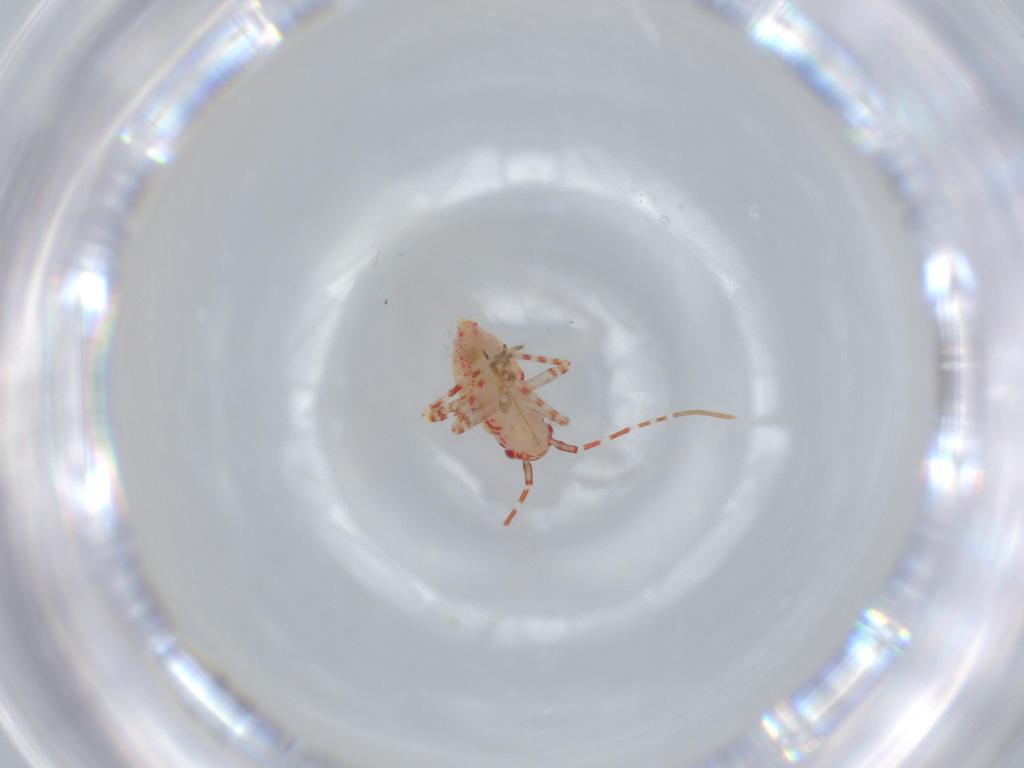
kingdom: Animalia
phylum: Arthropoda
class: Insecta
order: Hemiptera
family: Miridae
